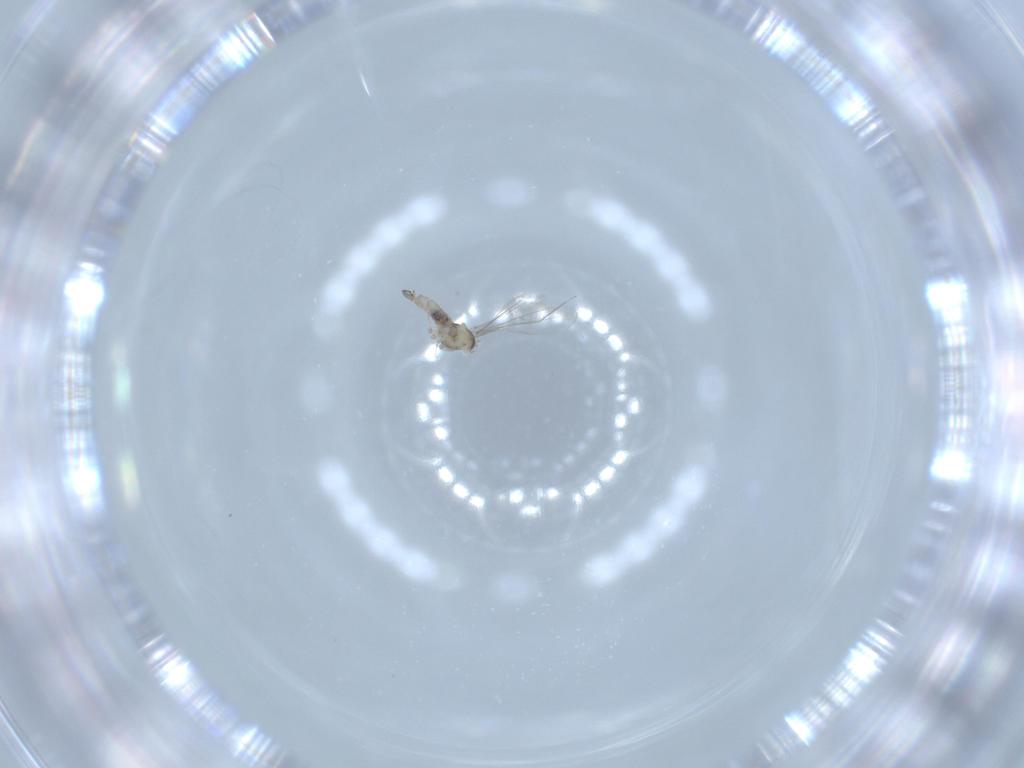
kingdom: Animalia
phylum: Arthropoda
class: Insecta
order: Diptera
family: Cecidomyiidae
